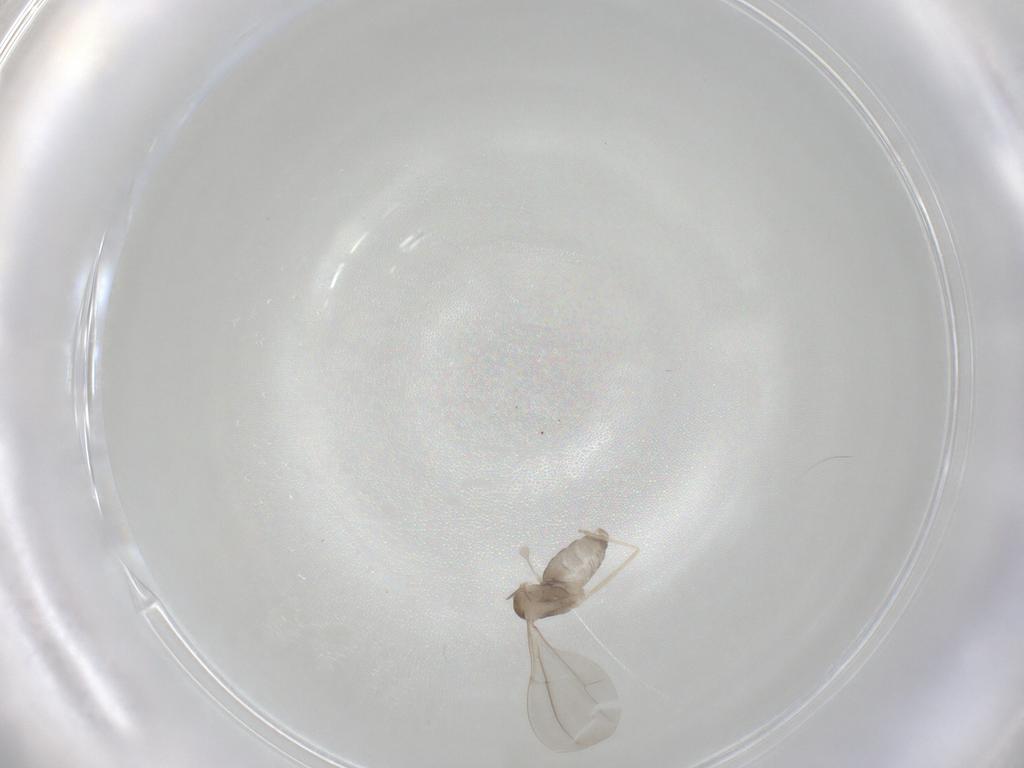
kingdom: Animalia
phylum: Arthropoda
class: Insecta
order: Diptera
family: Cecidomyiidae
